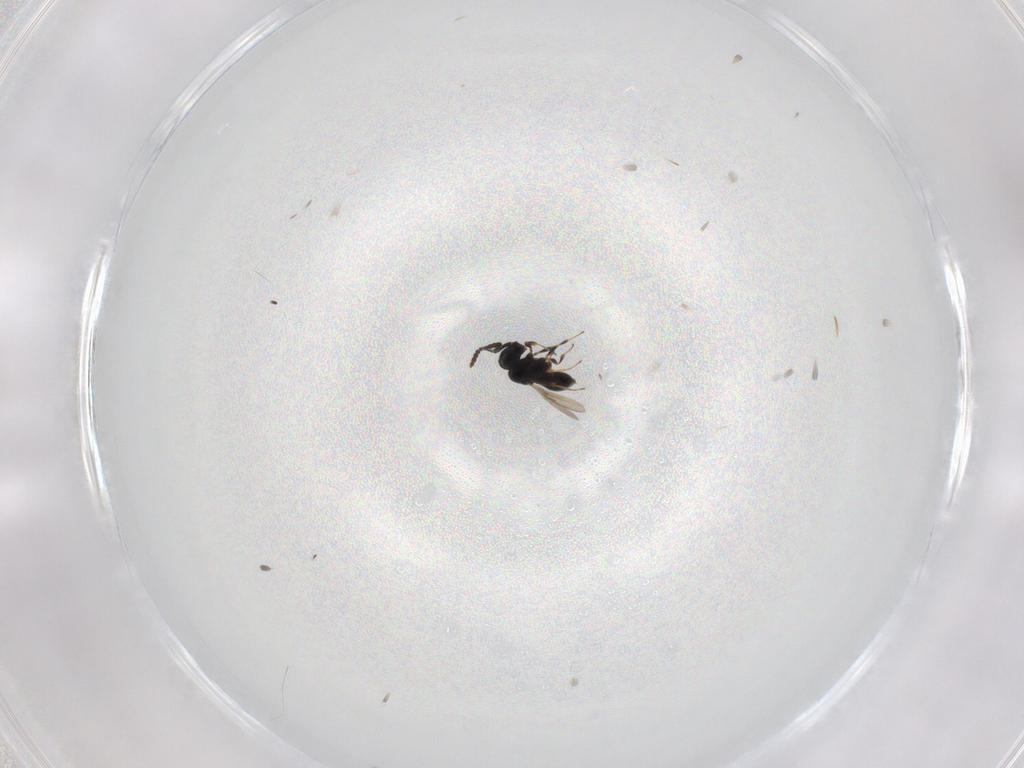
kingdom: Animalia
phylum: Arthropoda
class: Insecta
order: Hymenoptera
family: Scelionidae
